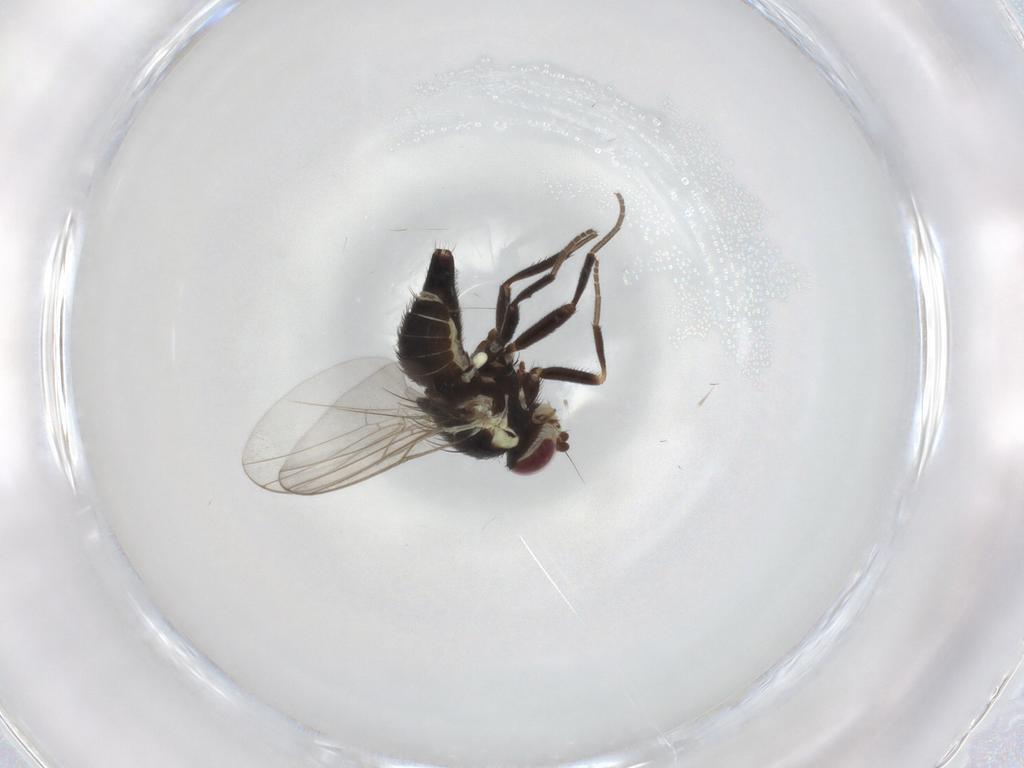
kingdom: Animalia
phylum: Arthropoda
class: Insecta
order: Diptera
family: Agromyzidae
